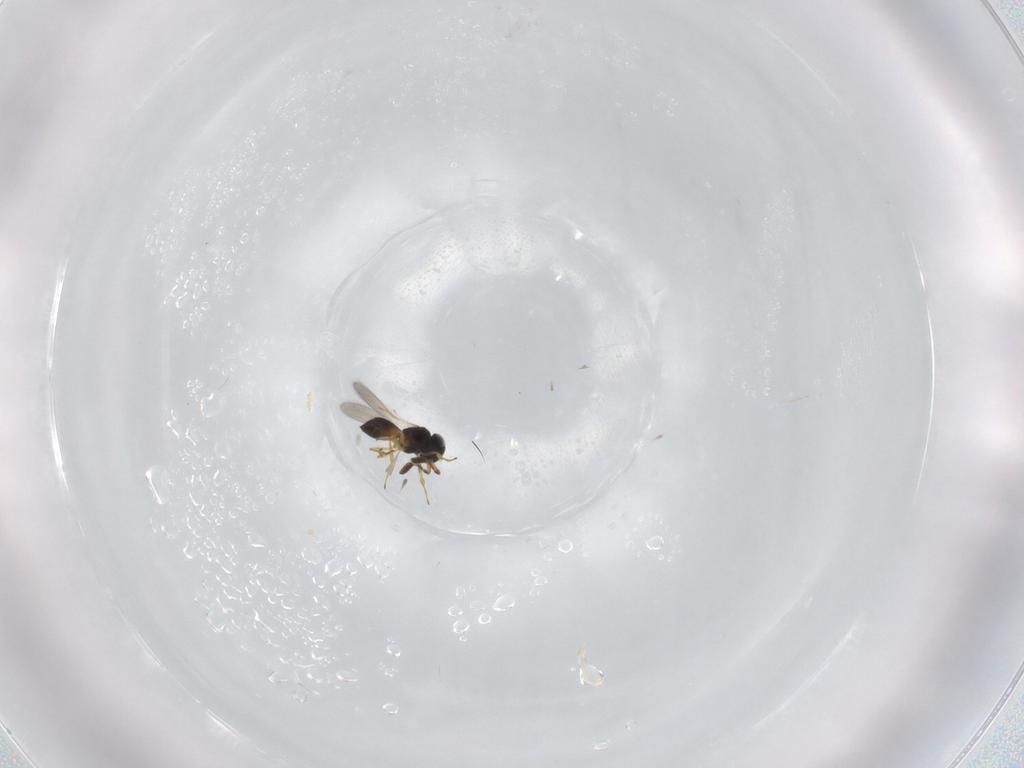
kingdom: Animalia
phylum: Arthropoda
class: Insecta
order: Hymenoptera
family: Scelionidae
